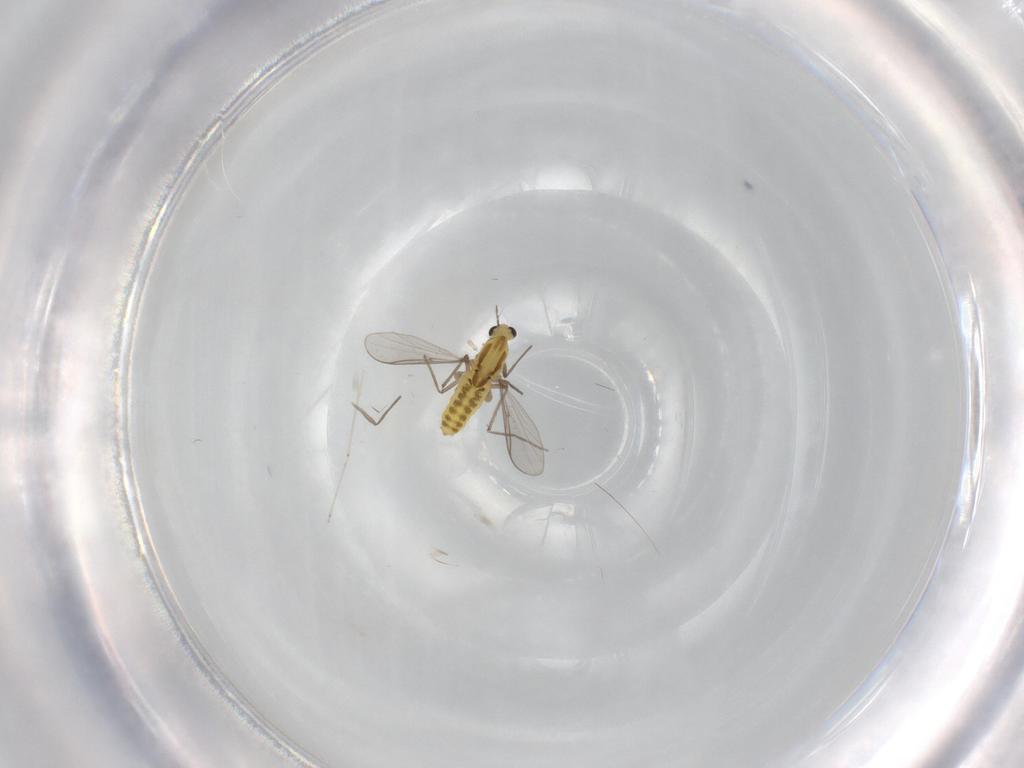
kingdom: Animalia
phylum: Arthropoda
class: Insecta
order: Diptera
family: Chironomidae
